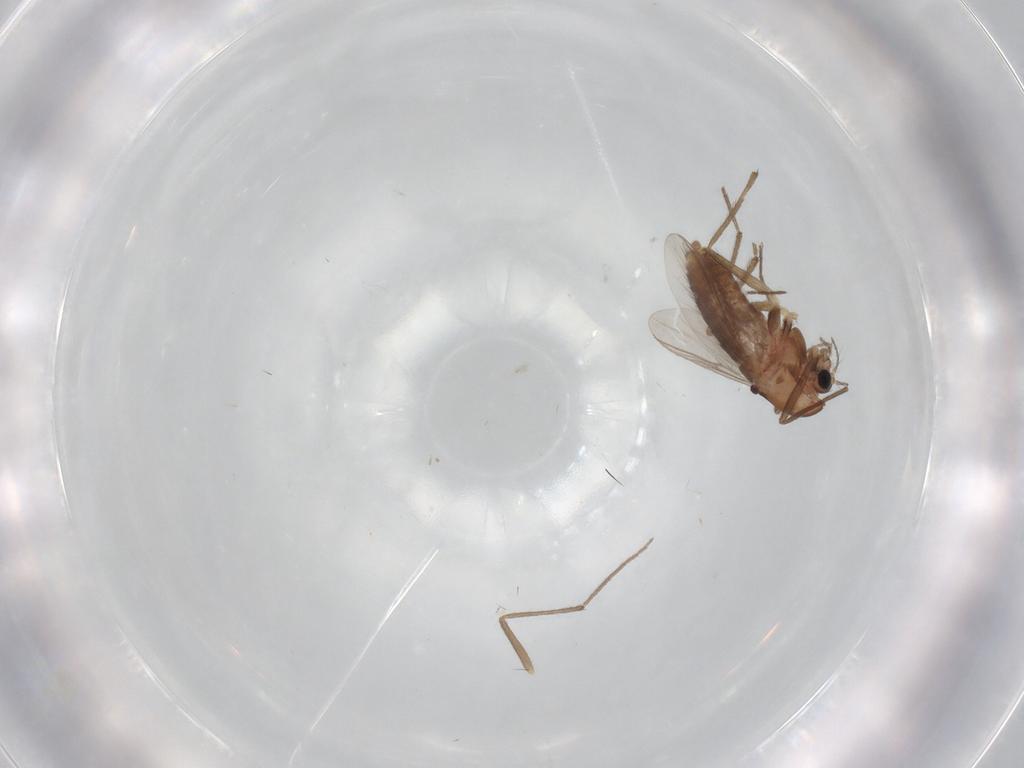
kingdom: Animalia
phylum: Arthropoda
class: Insecta
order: Diptera
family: Chironomidae
